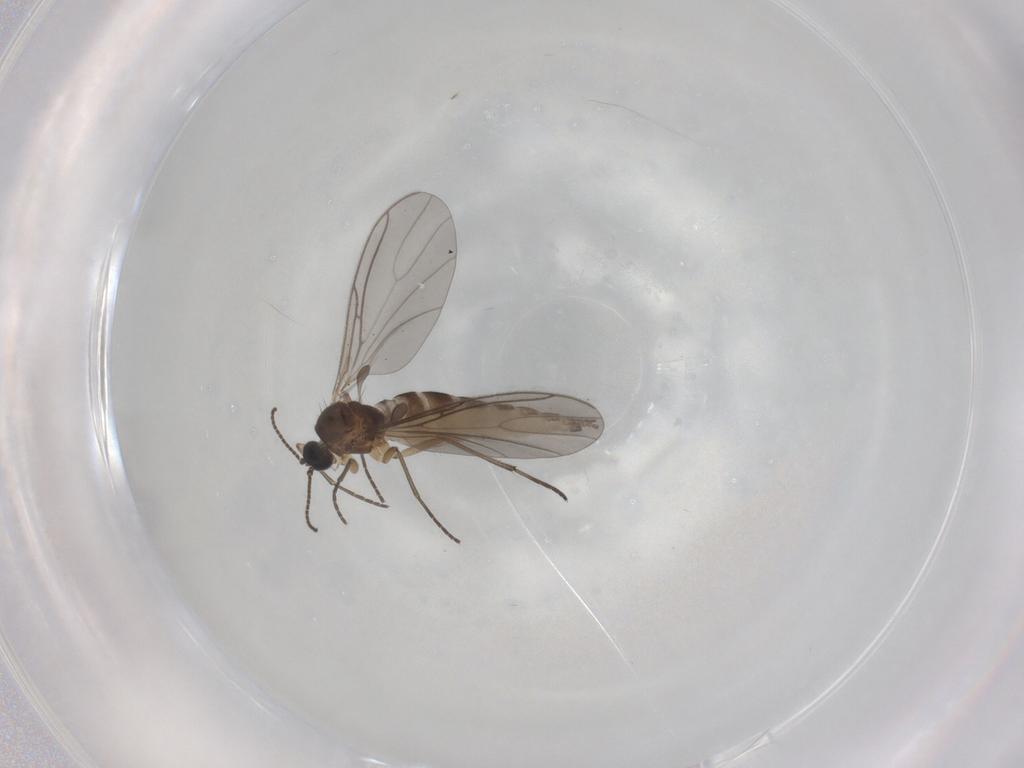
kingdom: Animalia
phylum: Arthropoda
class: Insecta
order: Diptera
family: Sciaridae
